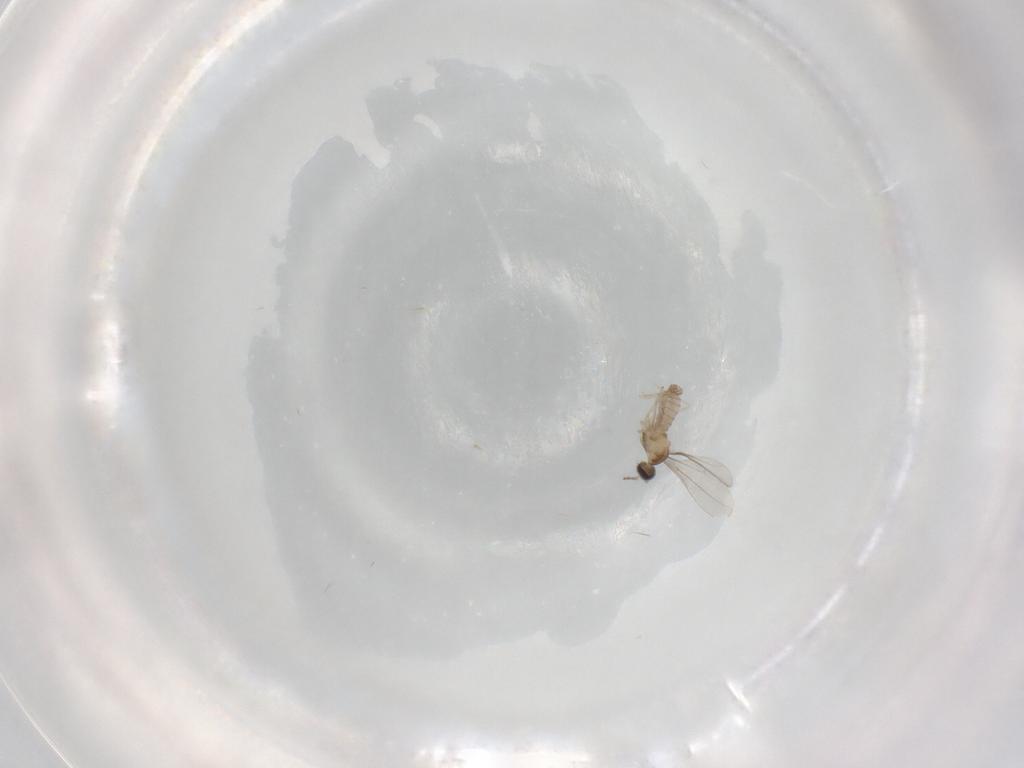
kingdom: Animalia
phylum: Arthropoda
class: Insecta
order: Diptera
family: Cecidomyiidae
